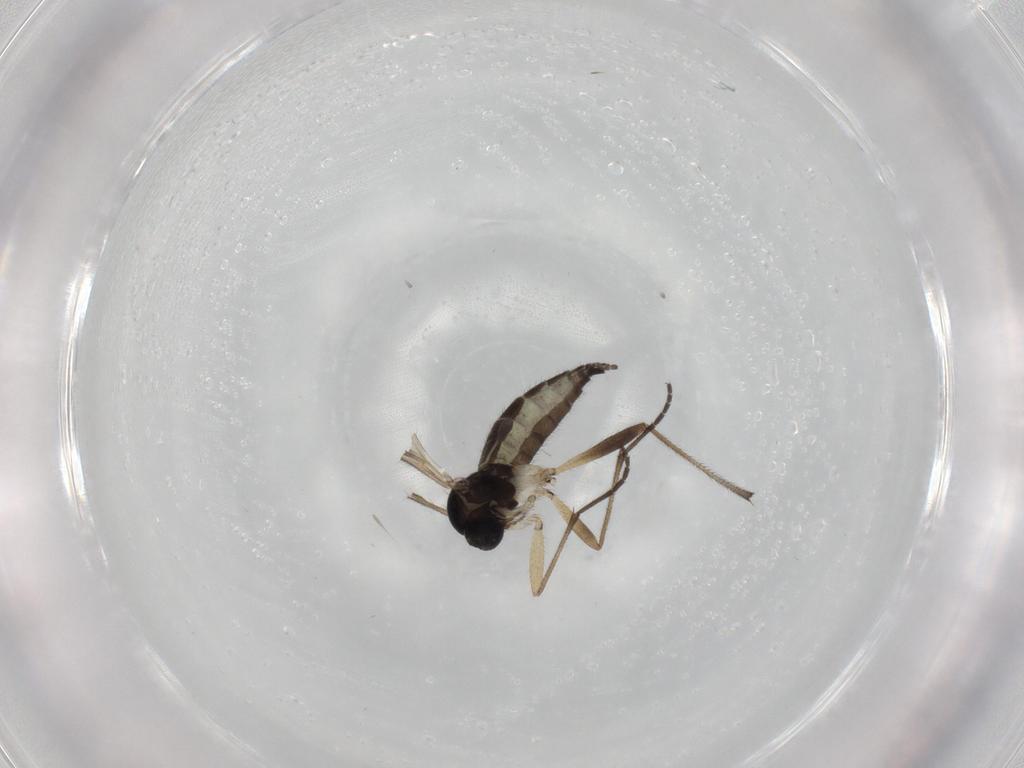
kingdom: Animalia
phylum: Arthropoda
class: Insecta
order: Diptera
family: Sciaridae
